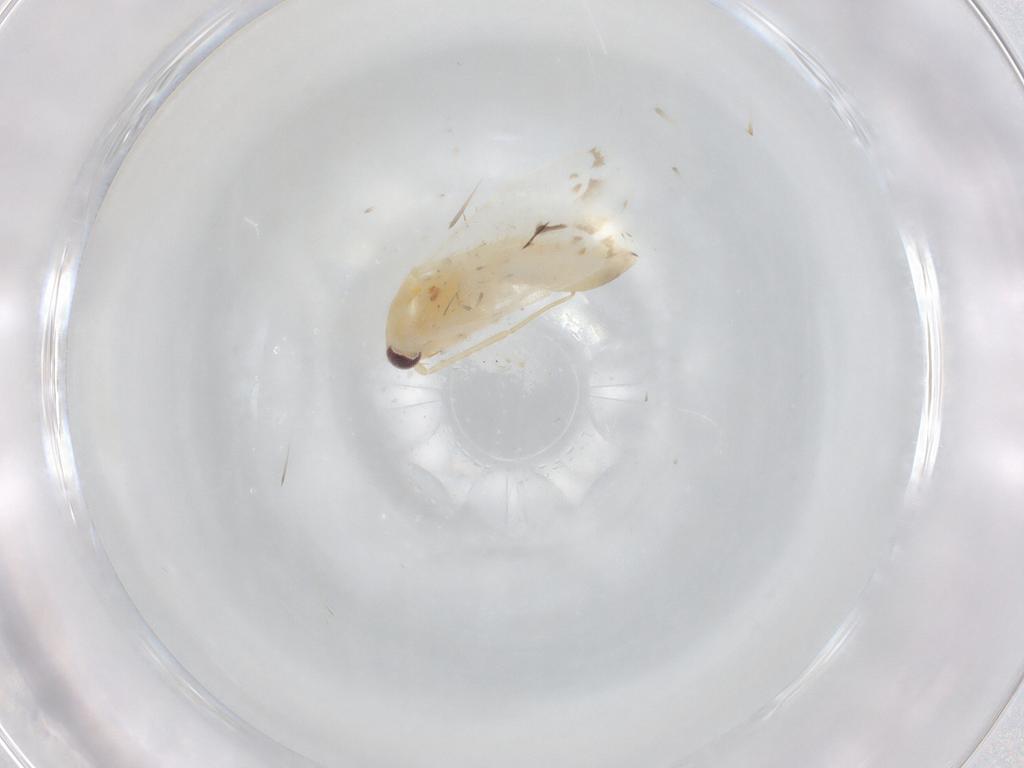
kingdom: Animalia
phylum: Arthropoda
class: Insecta
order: Hemiptera
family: Miridae
